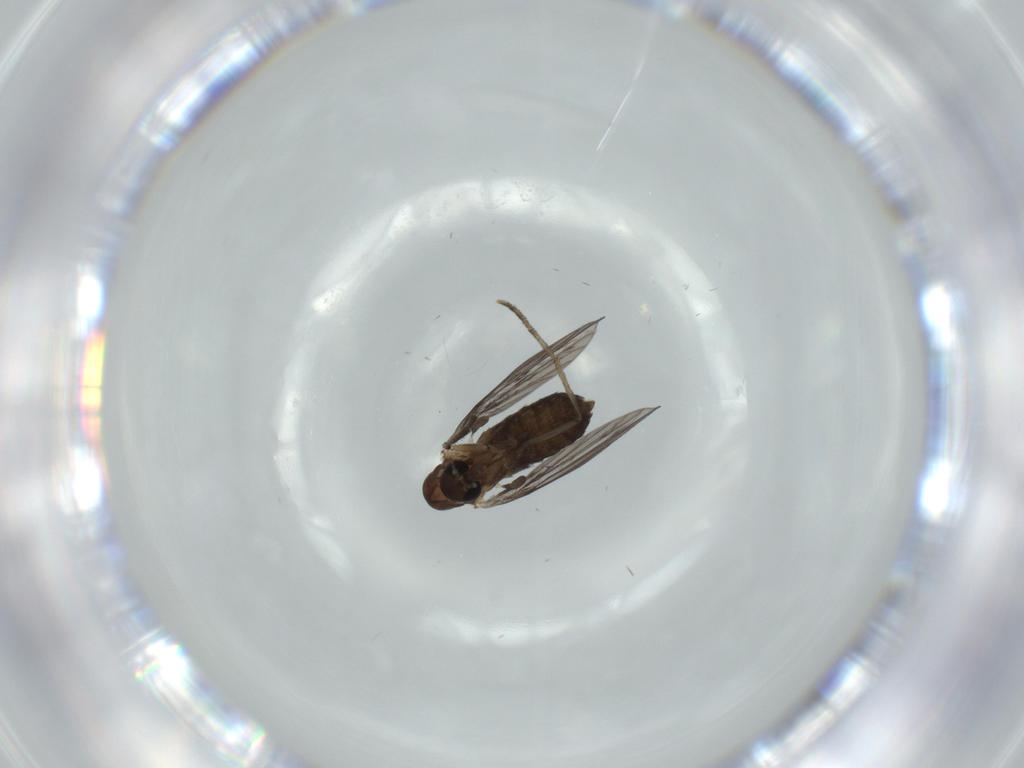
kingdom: Animalia
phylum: Arthropoda
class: Insecta
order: Diptera
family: Psychodidae
